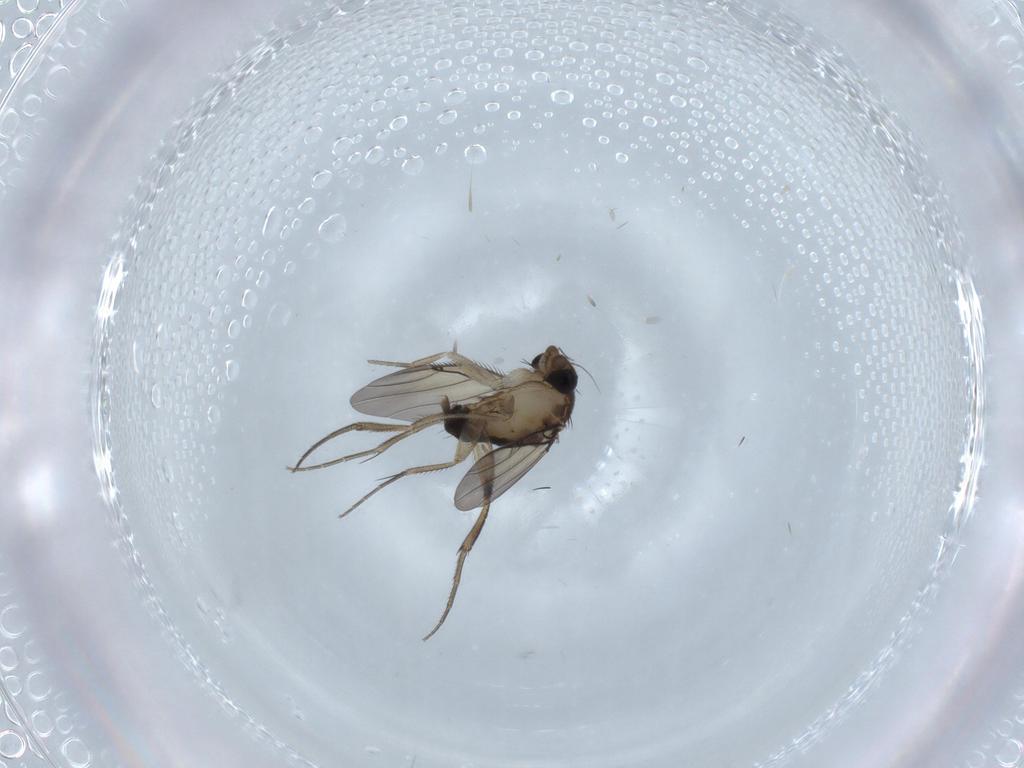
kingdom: Animalia
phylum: Arthropoda
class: Insecta
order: Diptera
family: Phoridae
